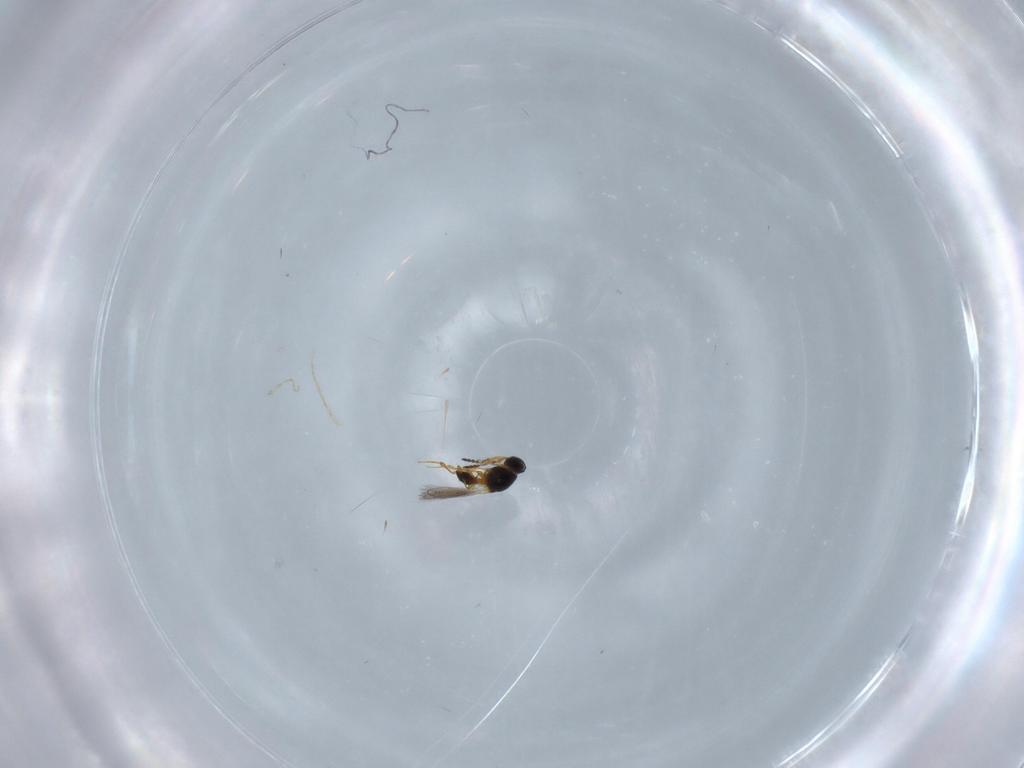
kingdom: Animalia
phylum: Arthropoda
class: Insecta
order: Hymenoptera
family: Platygastridae
